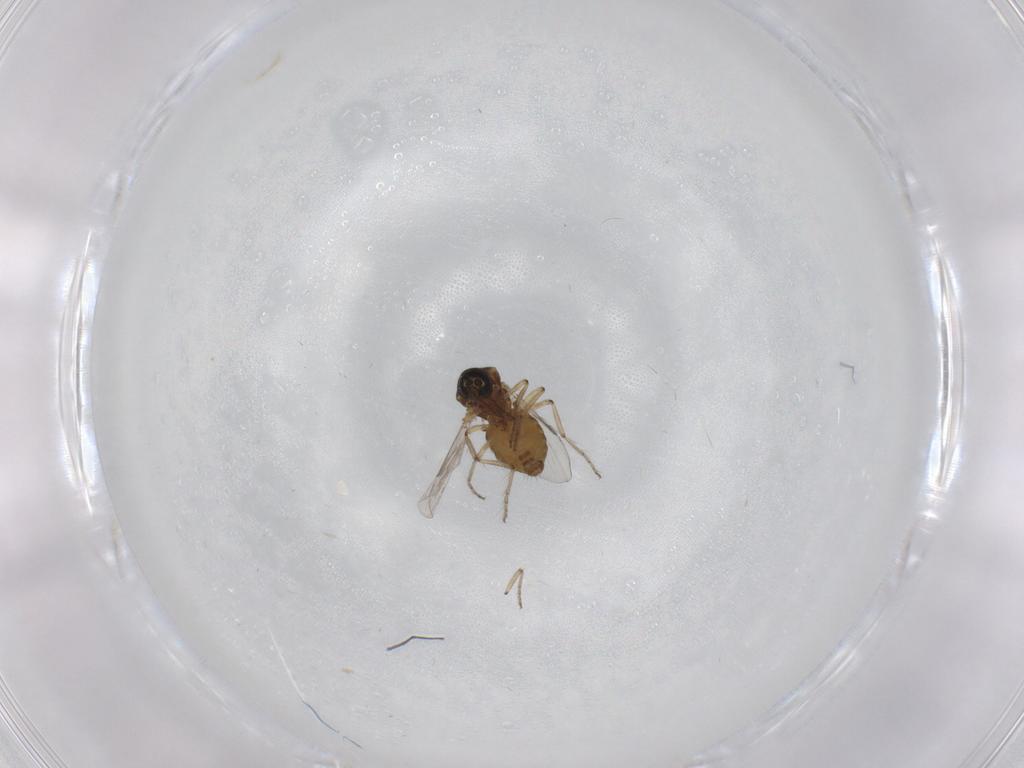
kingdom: Animalia
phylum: Arthropoda
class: Insecta
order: Diptera
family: Ceratopogonidae
